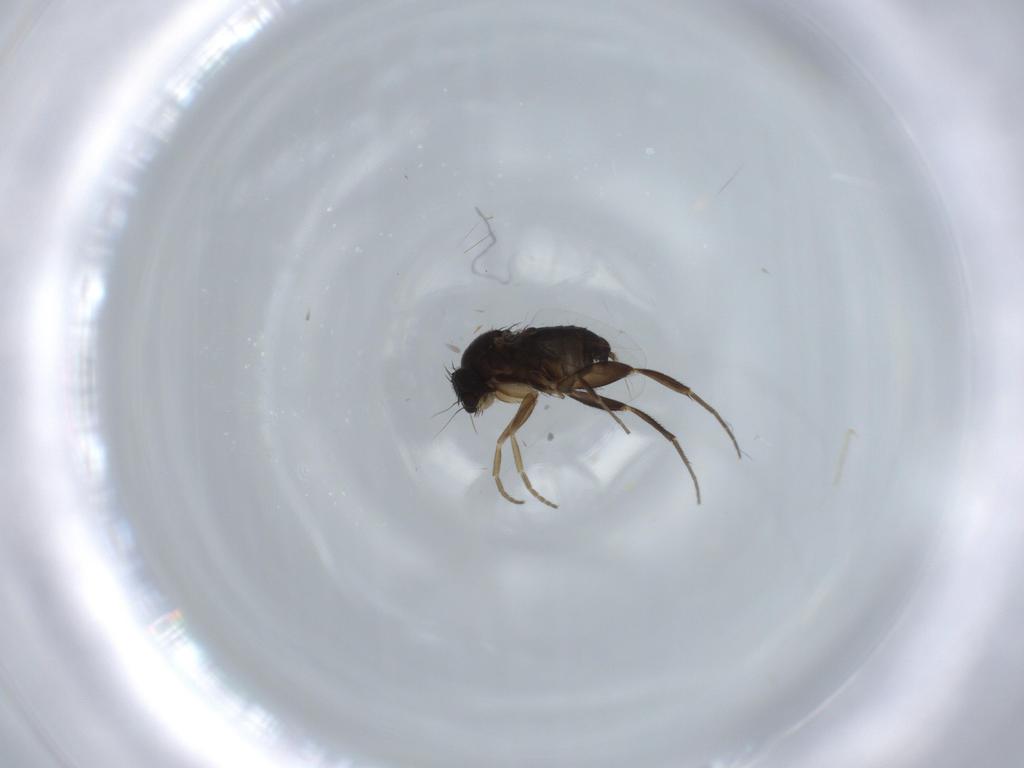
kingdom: Animalia
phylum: Arthropoda
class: Insecta
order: Diptera
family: Phoridae
